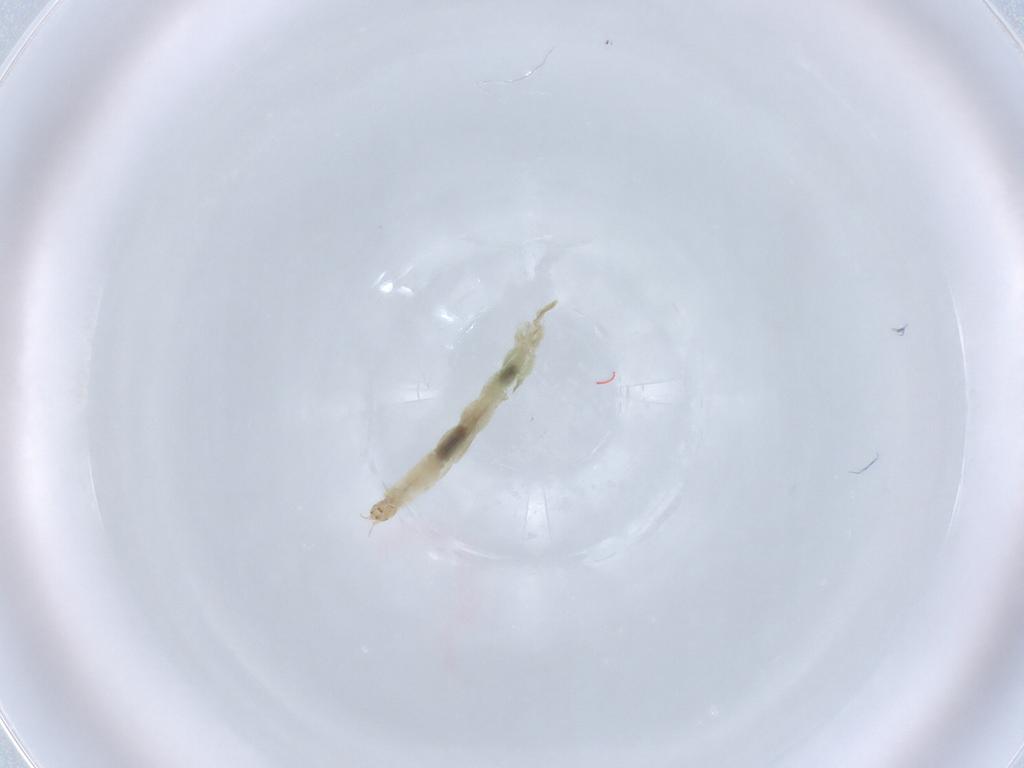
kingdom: Animalia
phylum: Arthropoda
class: Insecta
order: Diptera
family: Chironomidae
